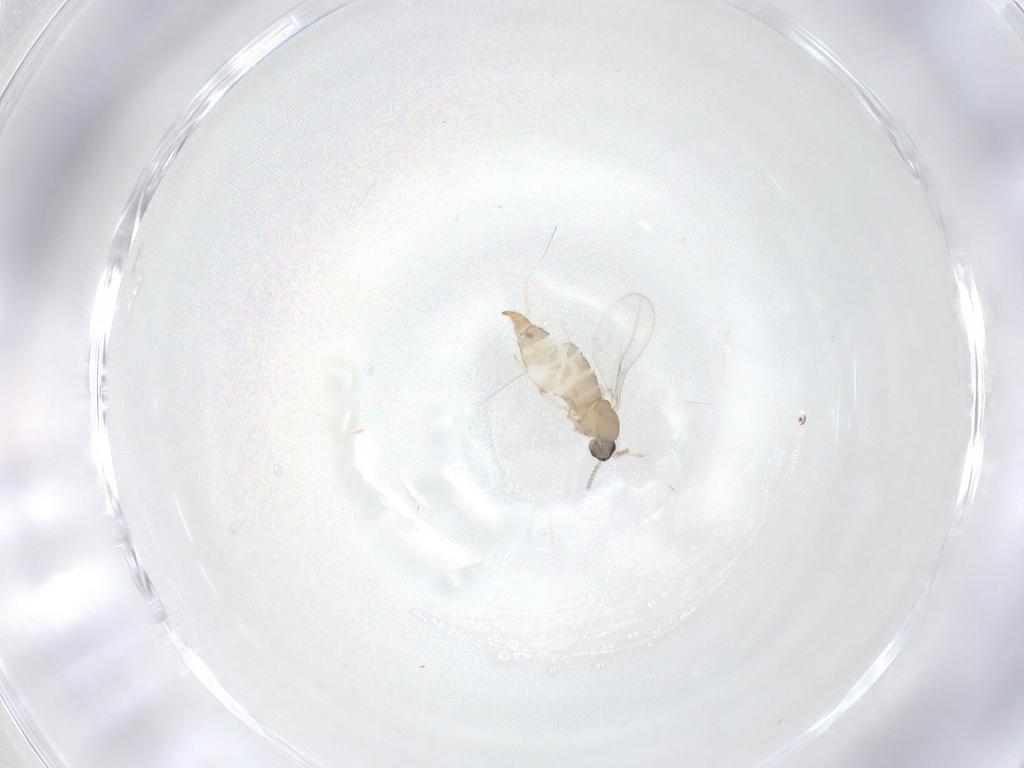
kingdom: Animalia
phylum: Arthropoda
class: Insecta
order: Diptera
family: Cecidomyiidae
